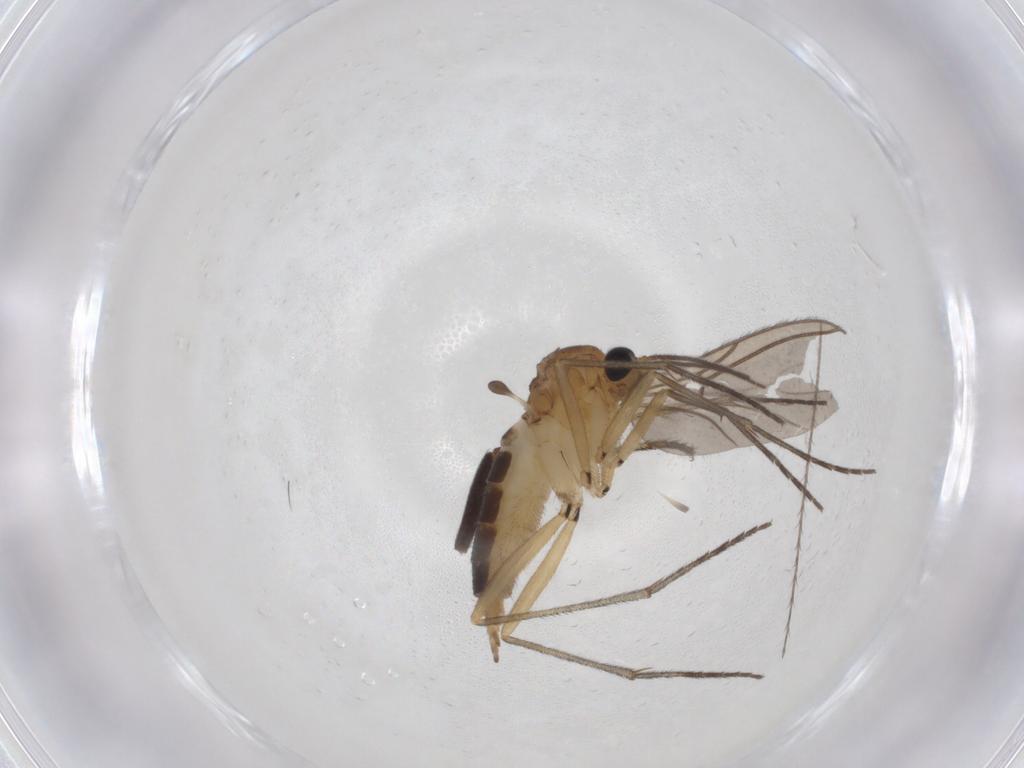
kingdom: Animalia
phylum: Arthropoda
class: Insecta
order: Diptera
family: Sciaridae
